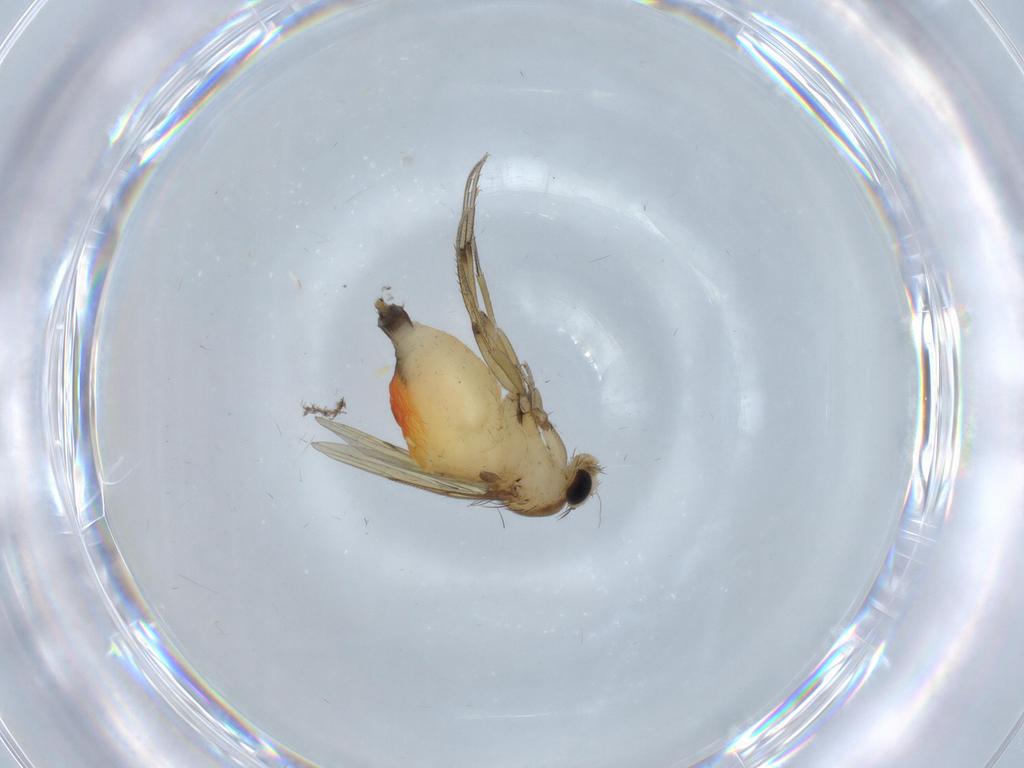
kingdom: Animalia
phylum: Arthropoda
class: Insecta
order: Diptera
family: Phoridae
